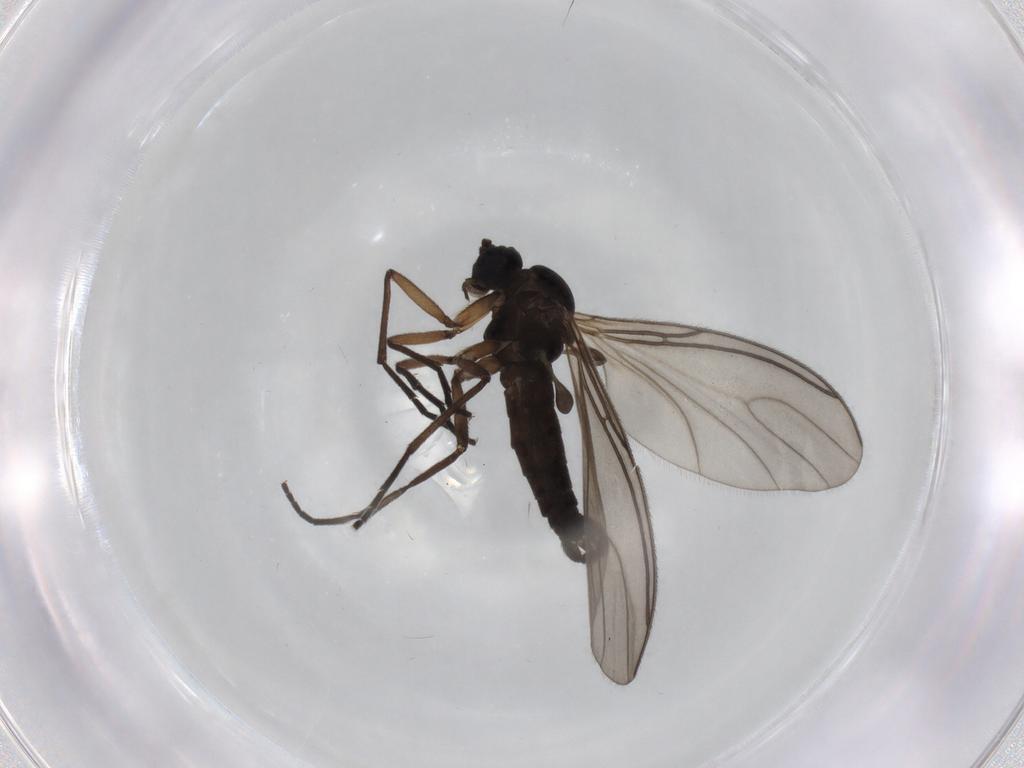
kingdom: Animalia
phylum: Arthropoda
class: Insecta
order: Diptera
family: Sciaridae
